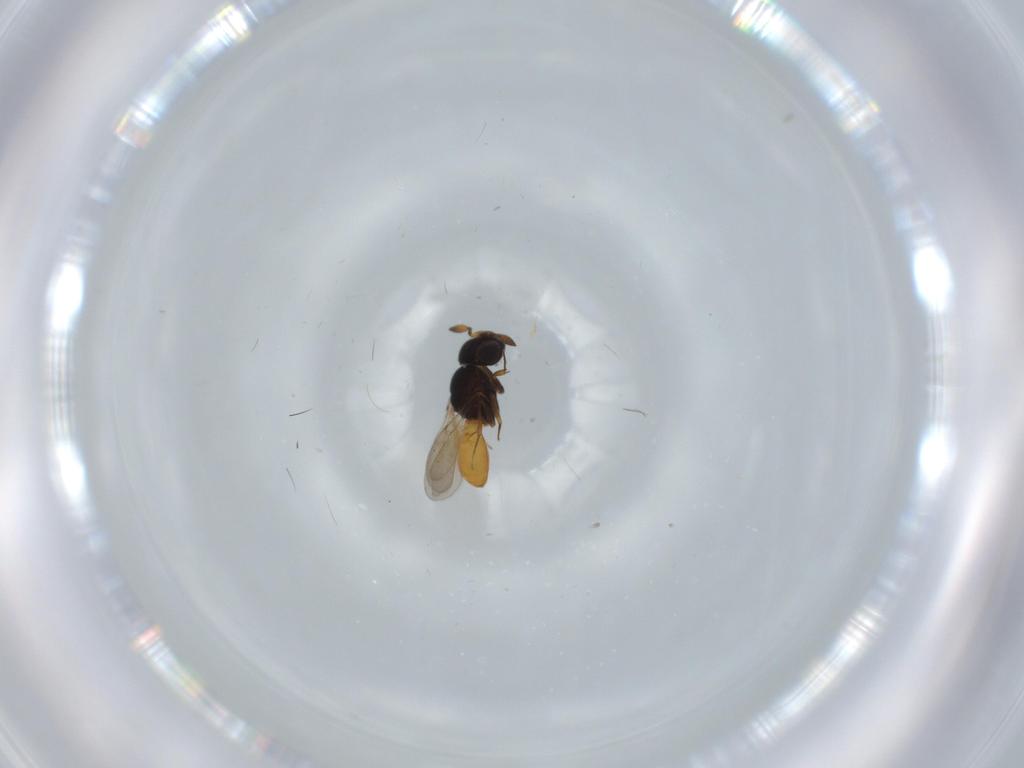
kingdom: Animalia
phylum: Arthropoda
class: Insecta
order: Hymenoptera
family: Scelionidae
